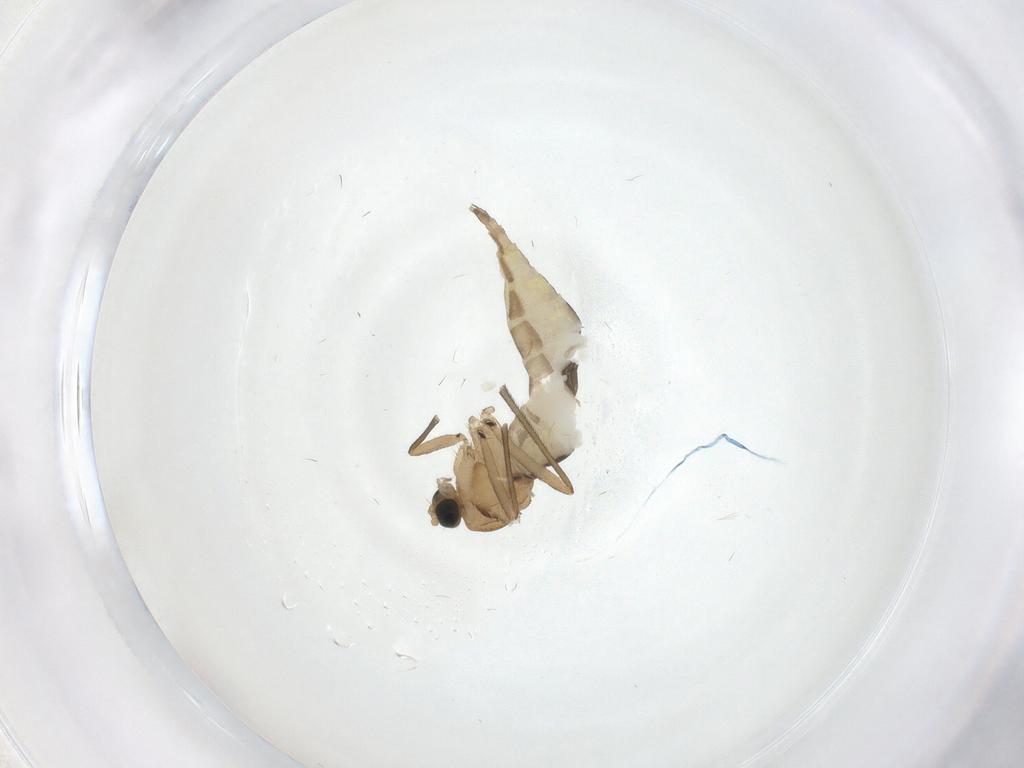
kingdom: Animalia
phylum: Arthropoda
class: Insecta
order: Diptera
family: Sciaridae
